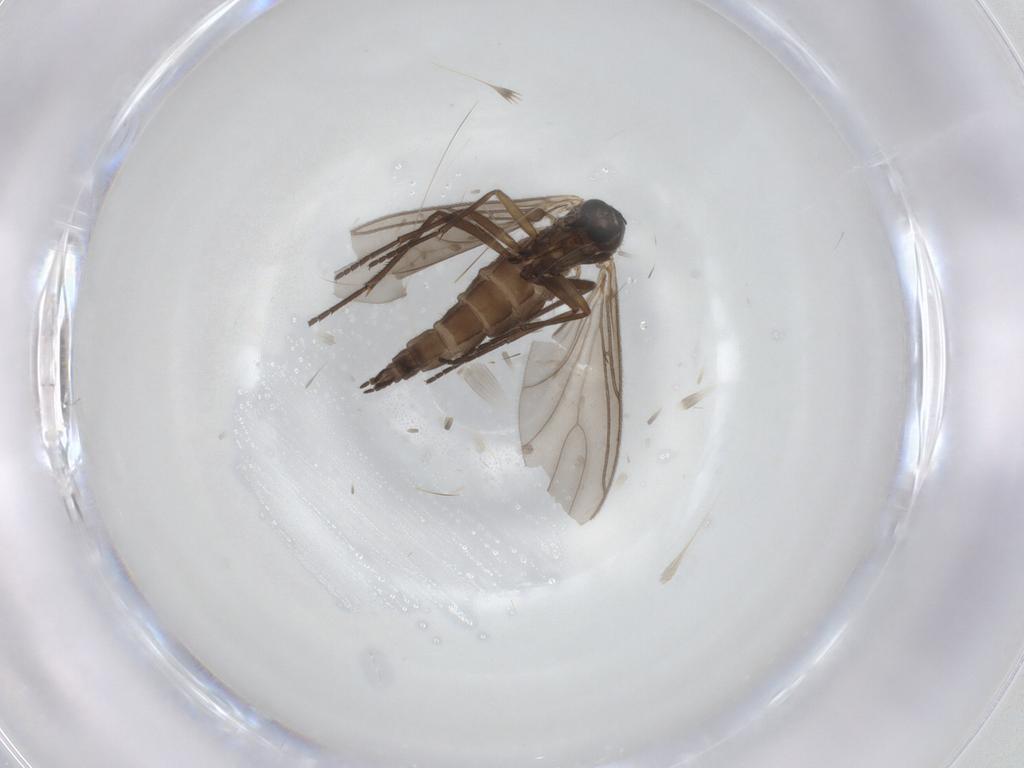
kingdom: Animalia
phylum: Arthropoda
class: Insecta
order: Diptera
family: Sciaridae
